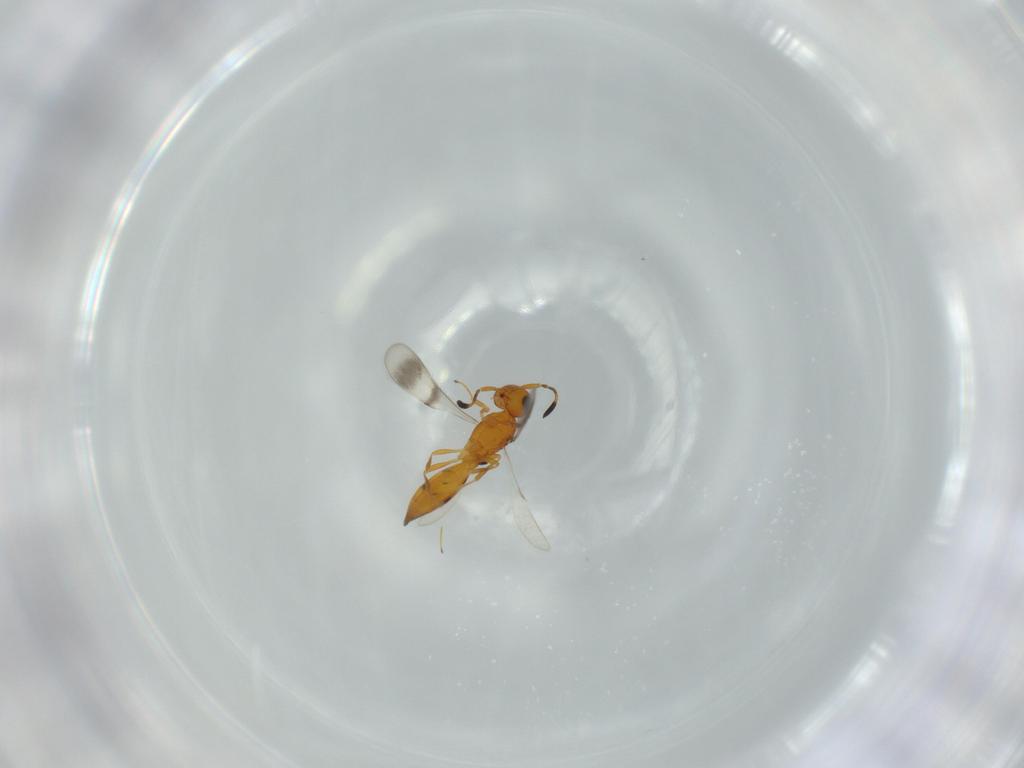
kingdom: Animalia
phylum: Arthropoda
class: Insecta
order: Hymenoptera
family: Scelionidae
